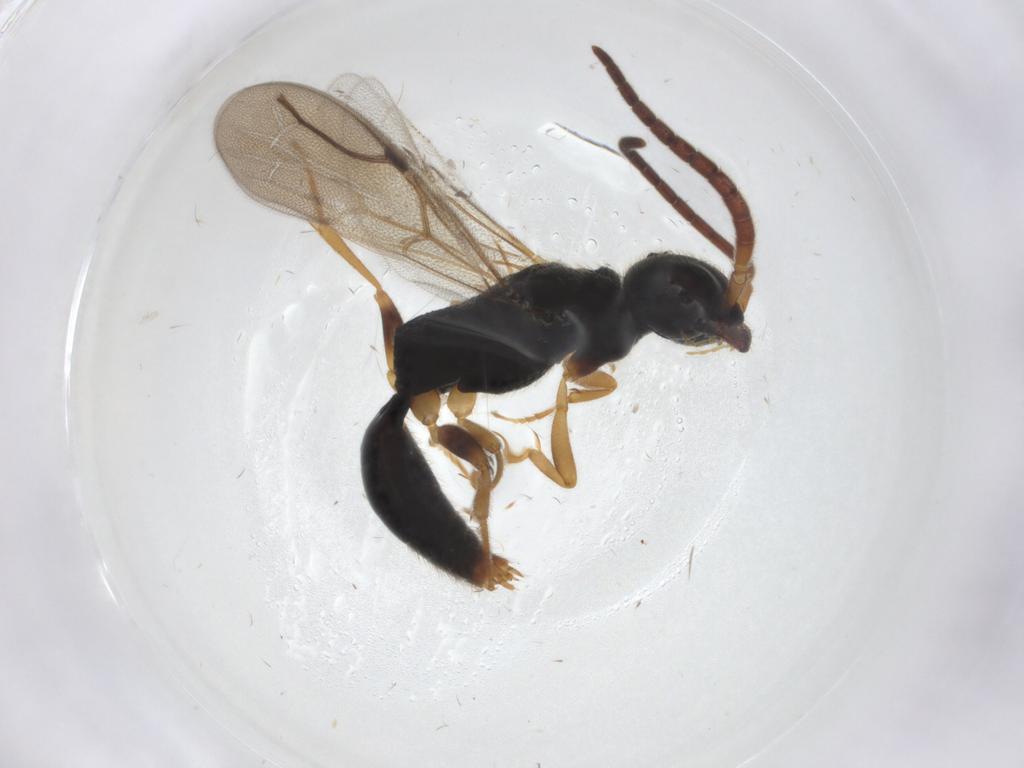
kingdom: Animalia
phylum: Arthropoda
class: Insecta
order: Hymenoptera
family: Bethylidae
